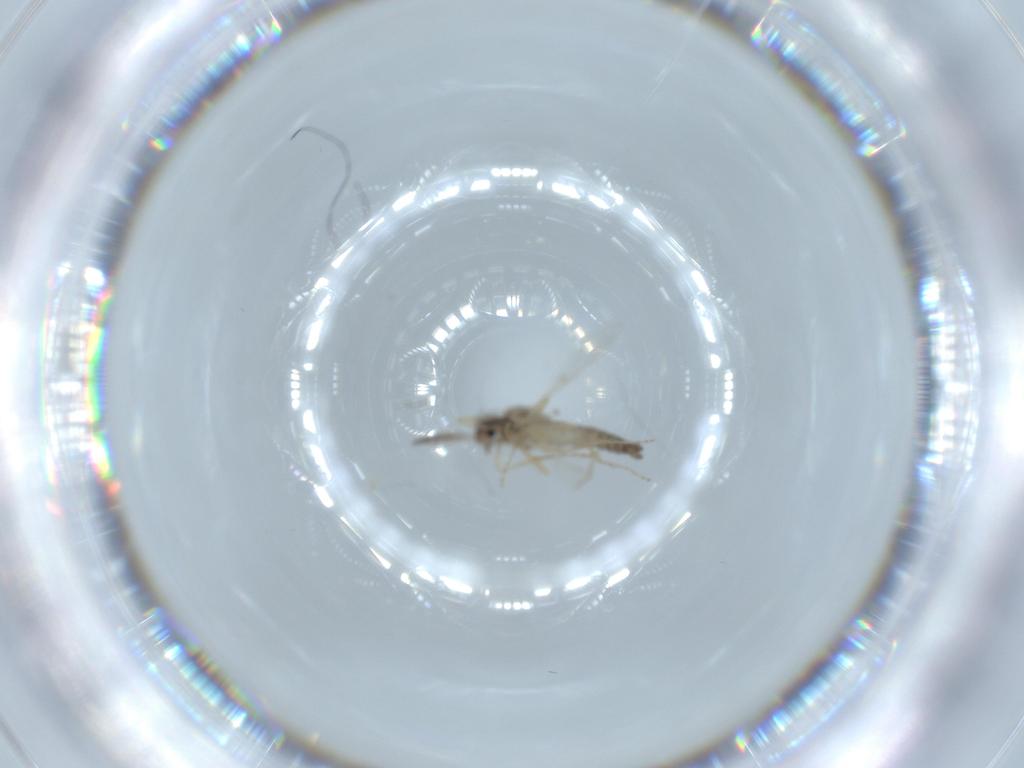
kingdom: Animalia
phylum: Arthropoda
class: Insecta
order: Diptera
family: Ceratopogonidae
